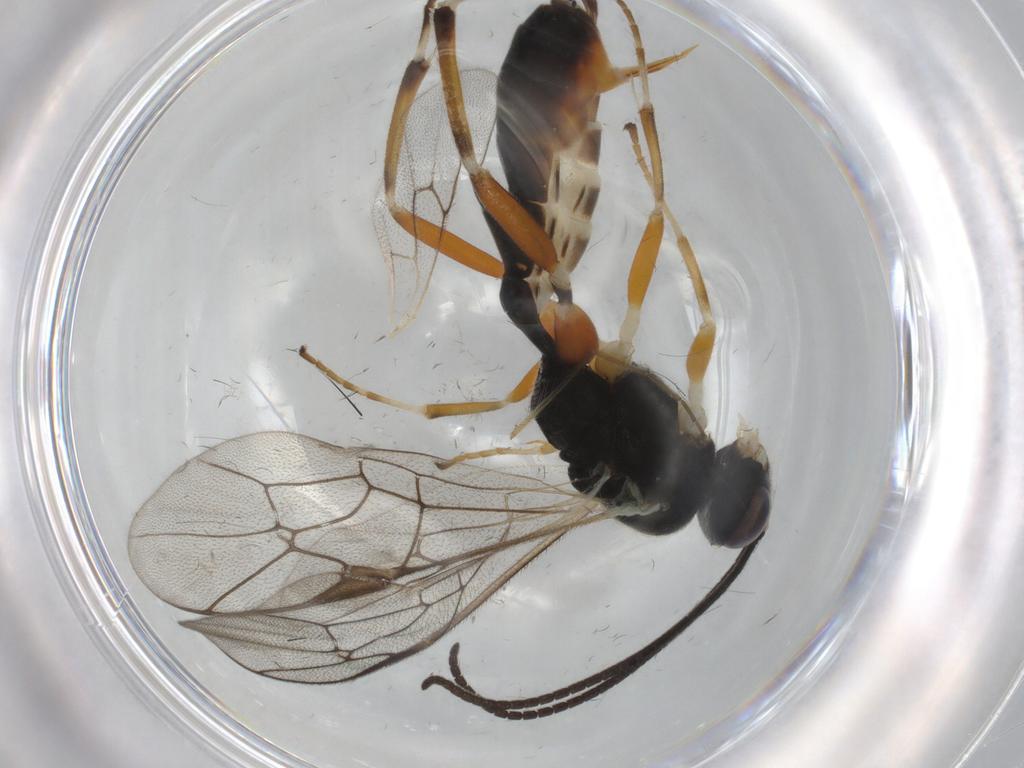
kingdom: Animalia
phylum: Arthropoda
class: Insecta
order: Hymenoptera
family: Ichneumonidae
